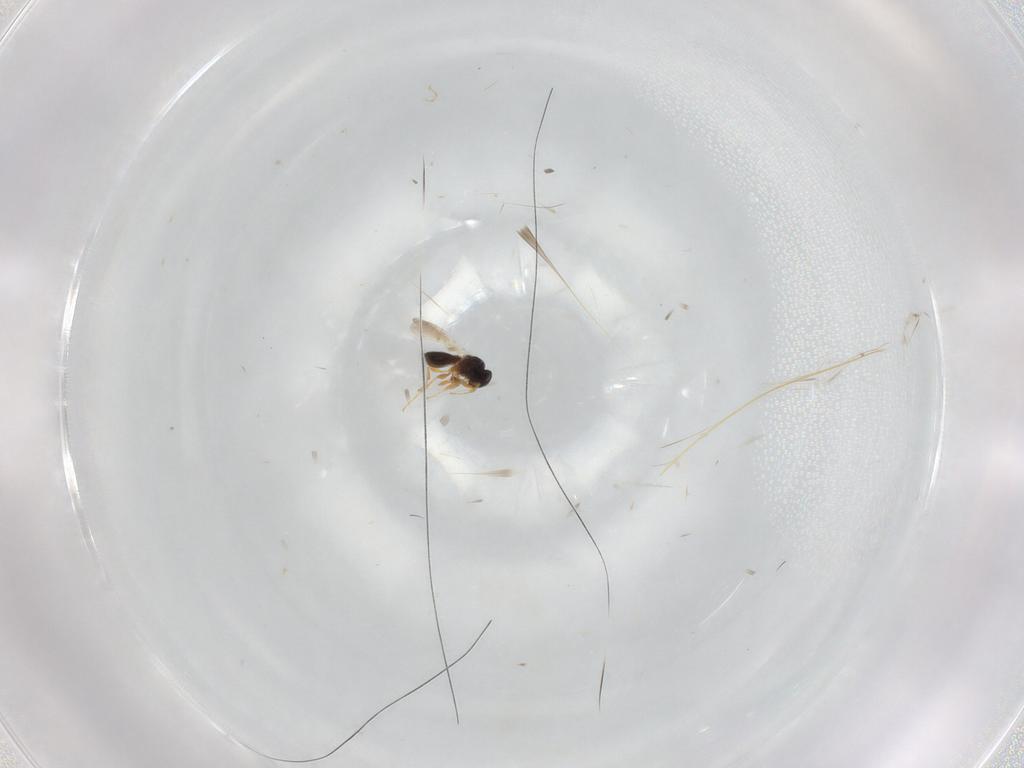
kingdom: Animalia
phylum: Arthropoda
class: Insecta
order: Hymenoptera
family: Platygastridae
